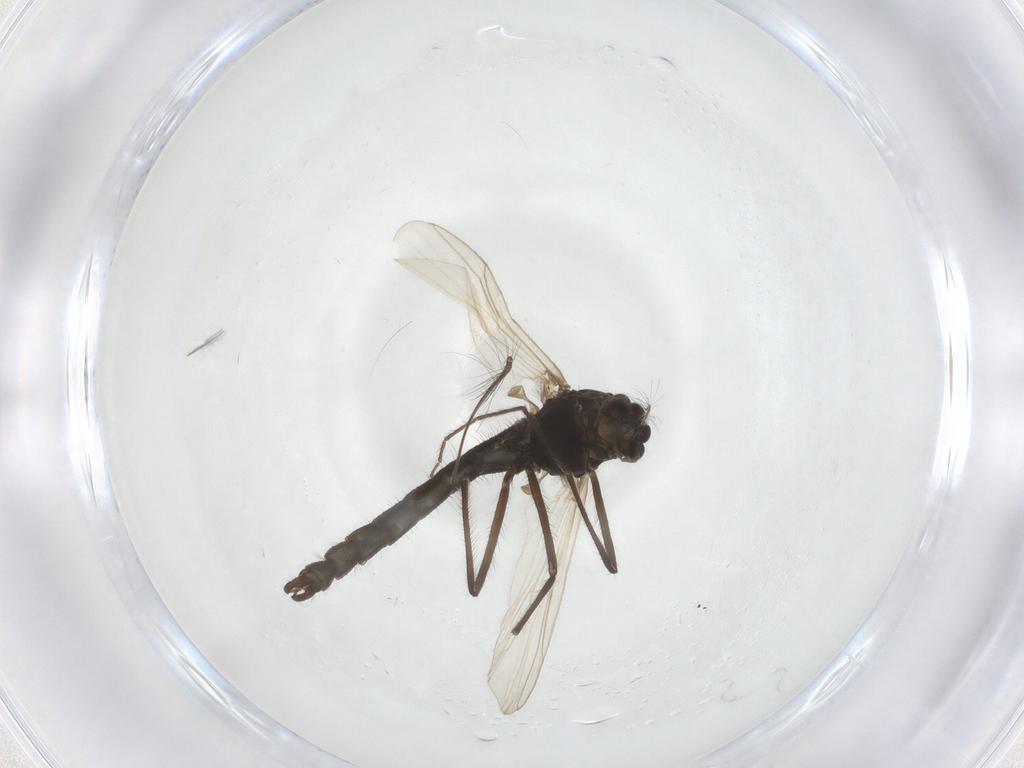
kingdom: Animalia
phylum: Arthropoda
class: Insecta
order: Diptera
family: Chironomidae
